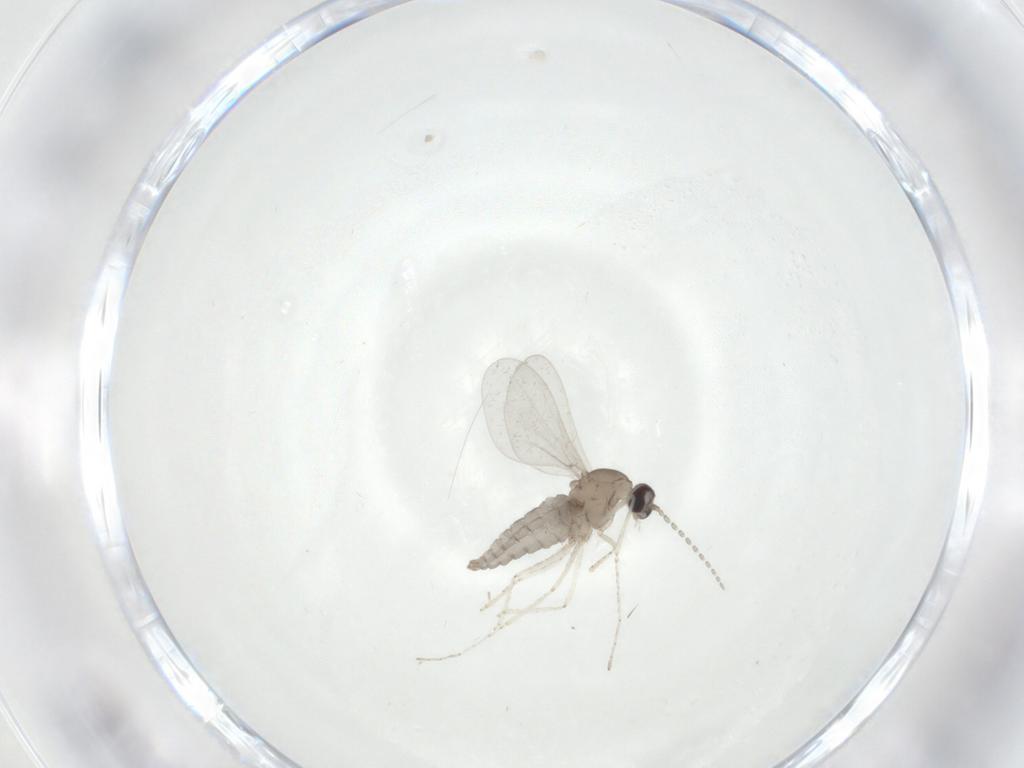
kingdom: Animalia
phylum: Arthropoda
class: Insecta
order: Diptera
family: Cecidomyiidae
